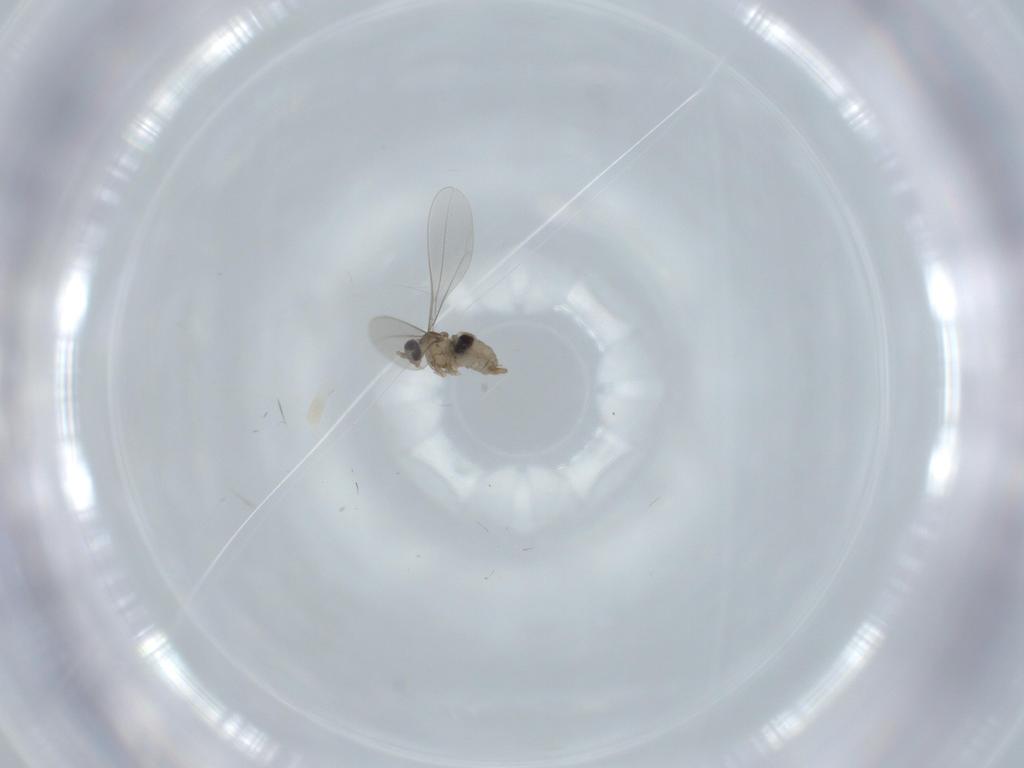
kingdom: Animalia
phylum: Arthropoda
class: Insecta
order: Diptera
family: Cecidomyiidae
